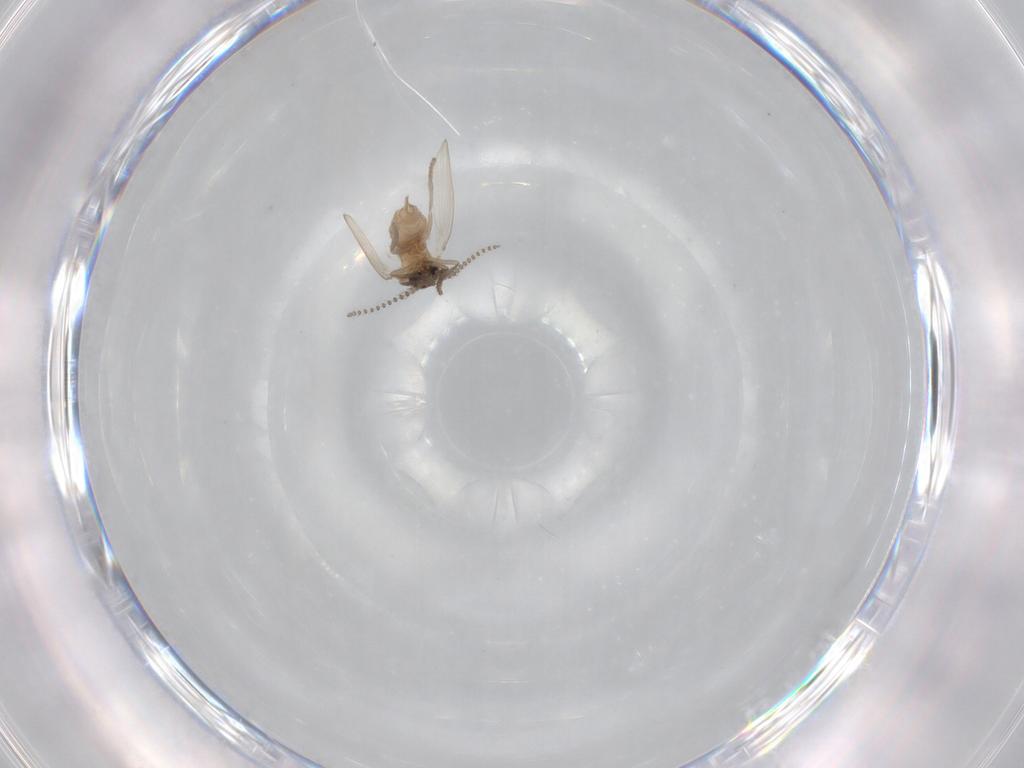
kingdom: Animalia
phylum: Arthropoda
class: Insecta
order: Diptera
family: Psychodidae
